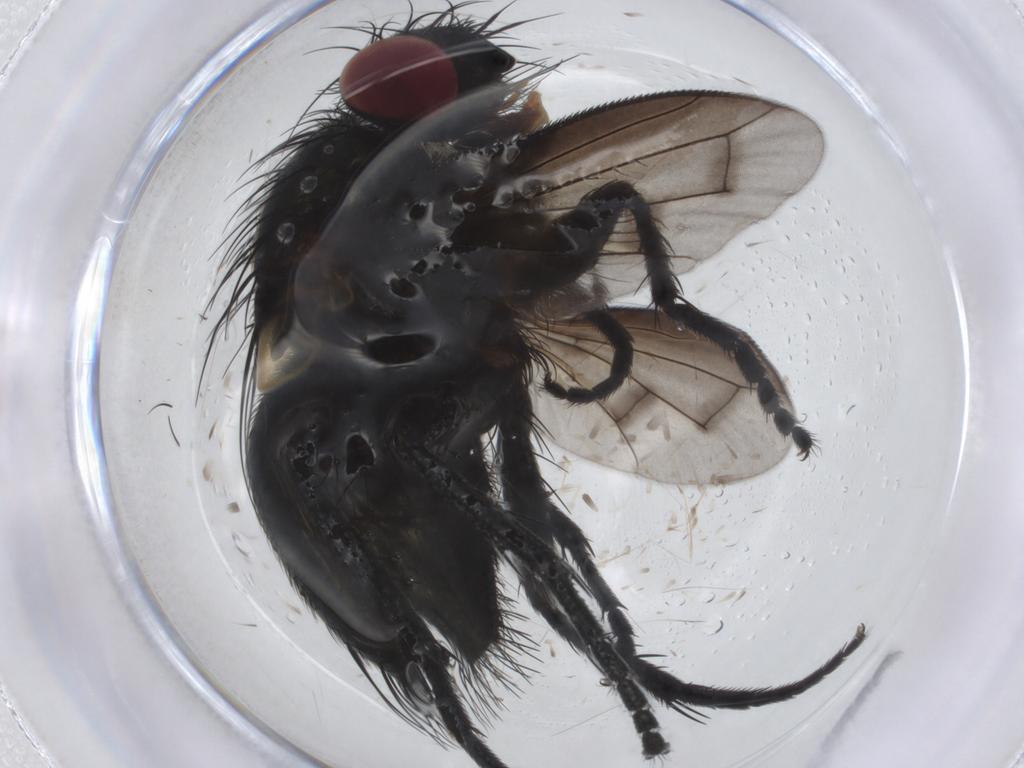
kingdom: Animalia
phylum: Arthropoda
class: Insecta
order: Diptera
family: Tachinidae
